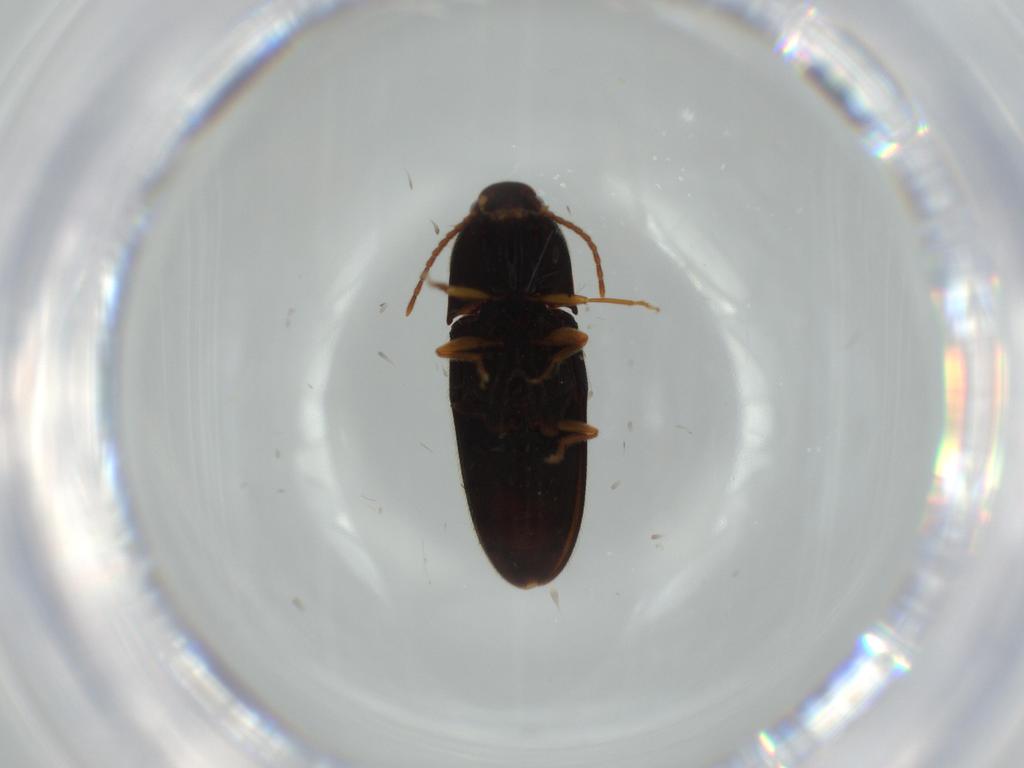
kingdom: Animalia
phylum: Arthropoda
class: Insecta
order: Coleoptera
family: Elateridae
